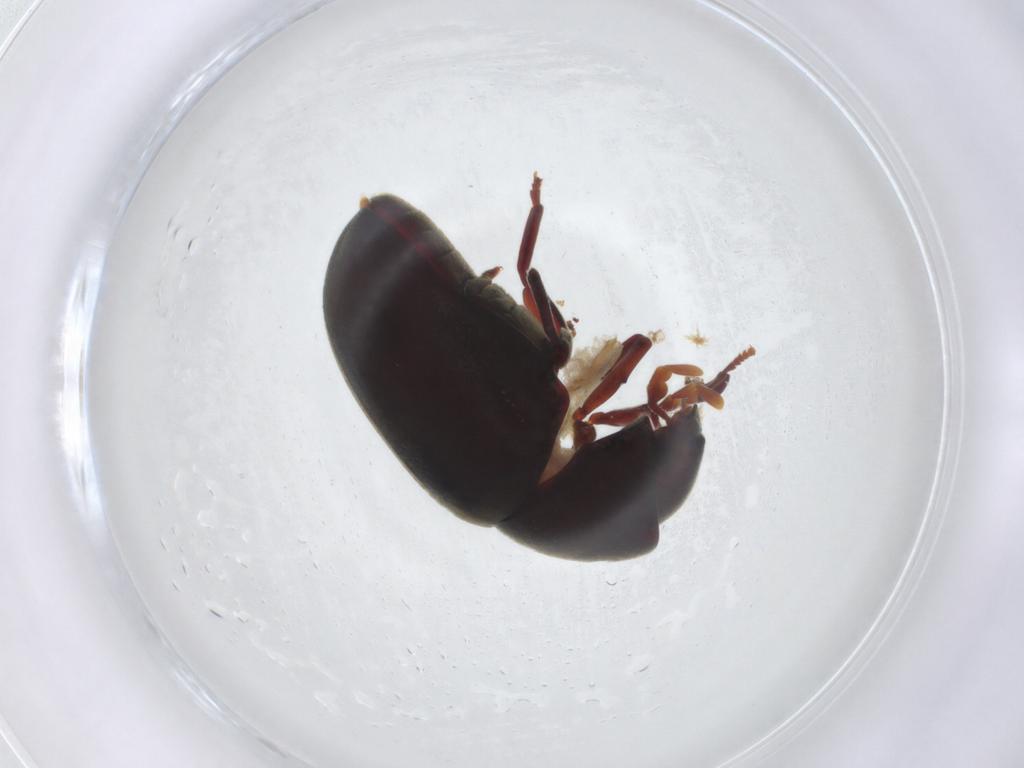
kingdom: Animalia
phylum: Arthropoda
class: Insecta
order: Coleoptera
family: Ptinidae
